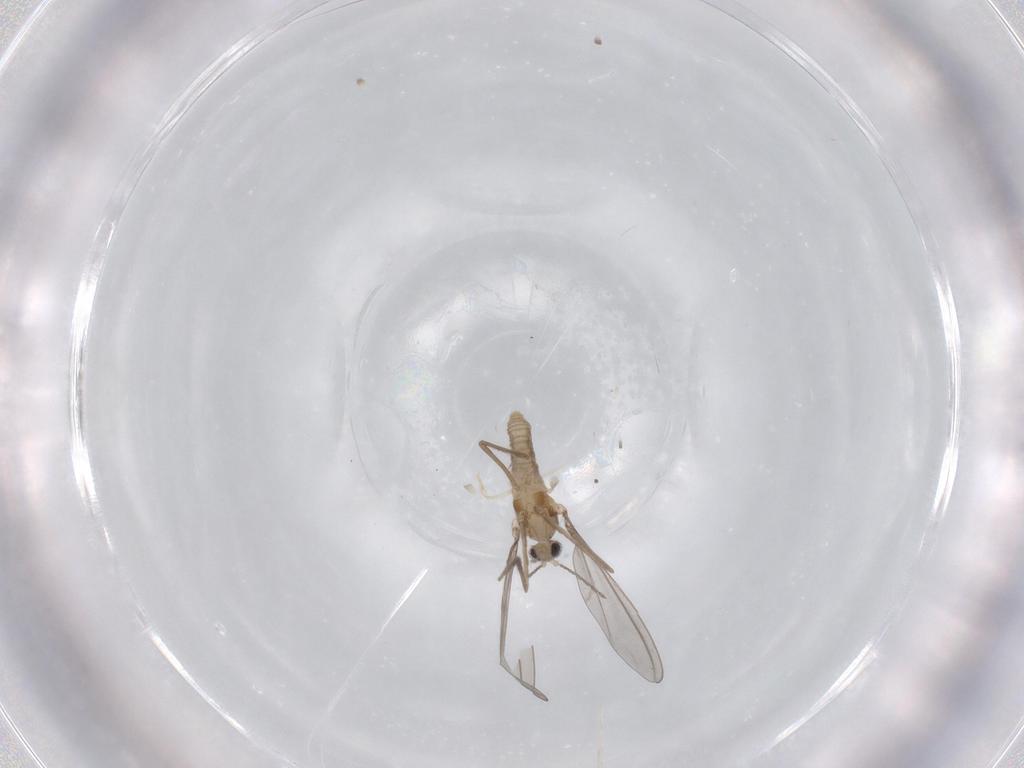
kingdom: Animalia
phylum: Arthropoda
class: Insecta
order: Diptera
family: Cecidomyiidae
